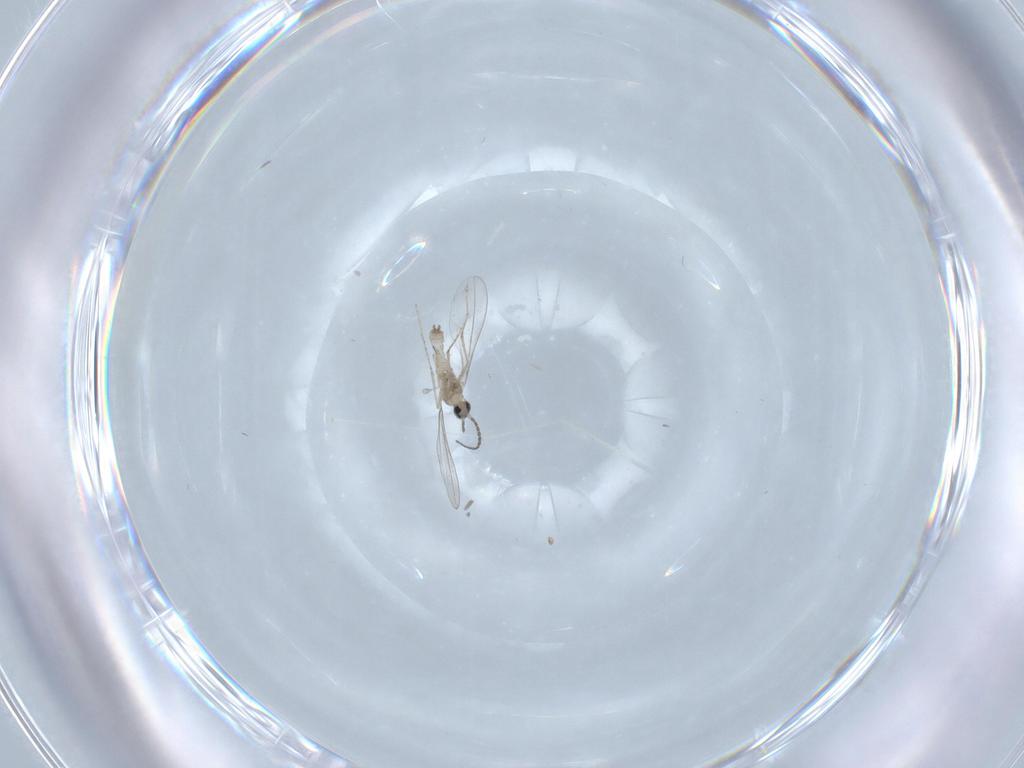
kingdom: Animalia
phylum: Arthropoda
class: Insecta
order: Diptera
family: Cecidomyiidae
